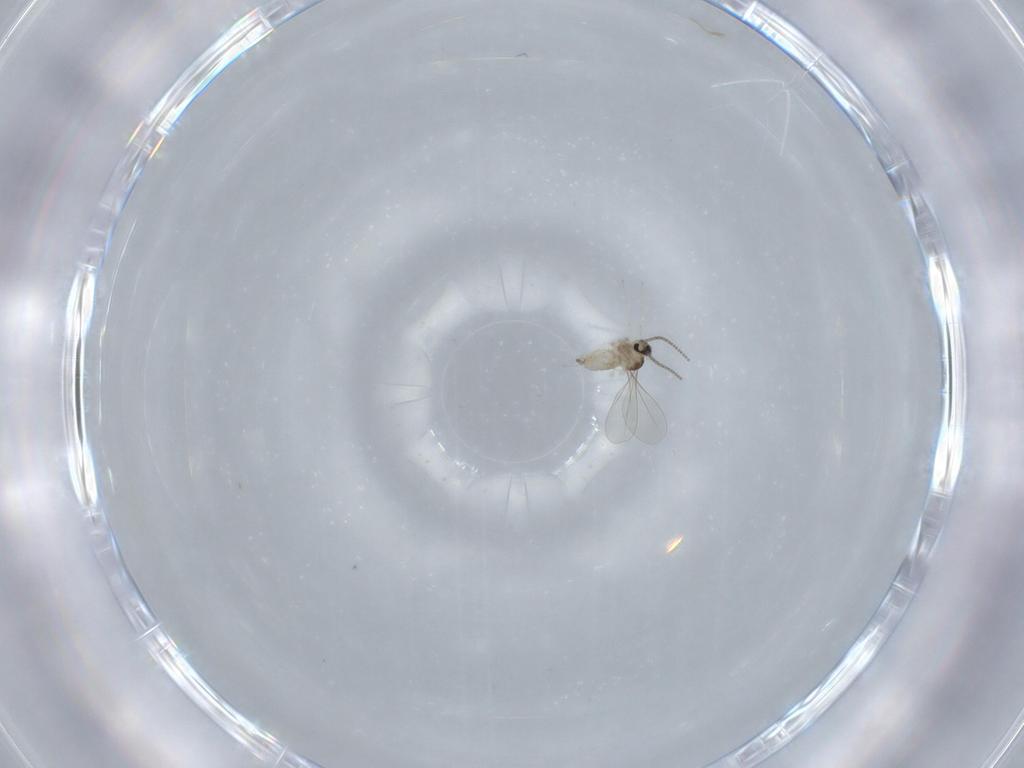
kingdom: Animalia
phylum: Arthropoda
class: Insecta
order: Diptera
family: Cecidomyiidae
